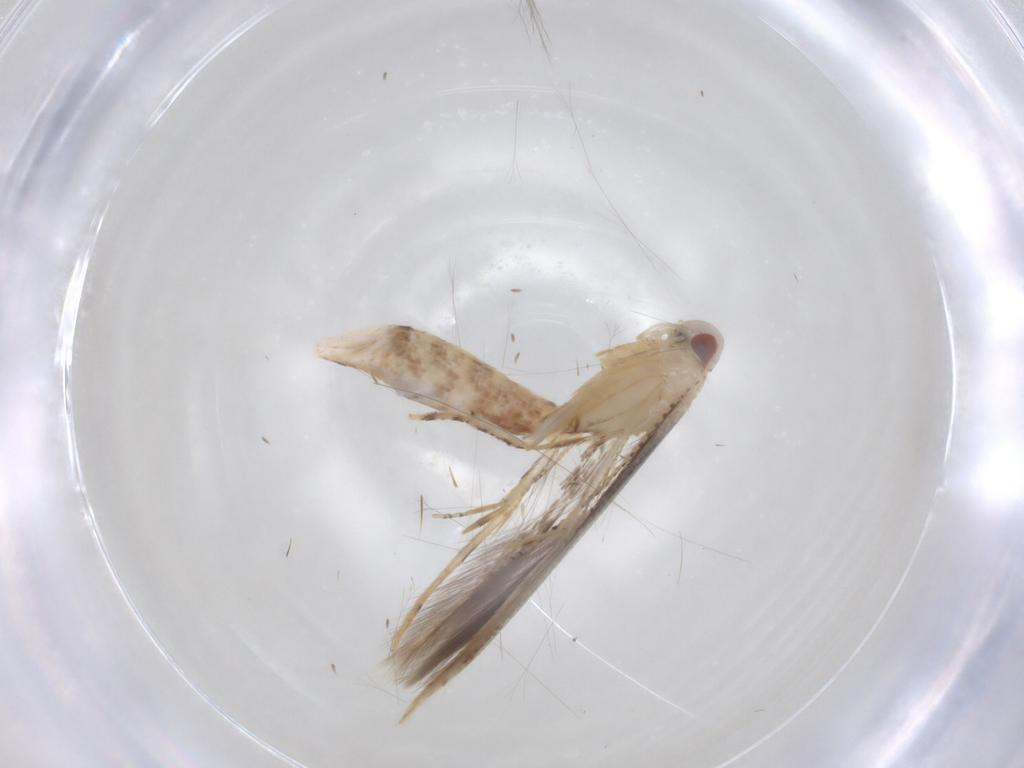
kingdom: Animalia
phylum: Arthropoda
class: Insecta
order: Lepidoptera
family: Cosmopterigidae
